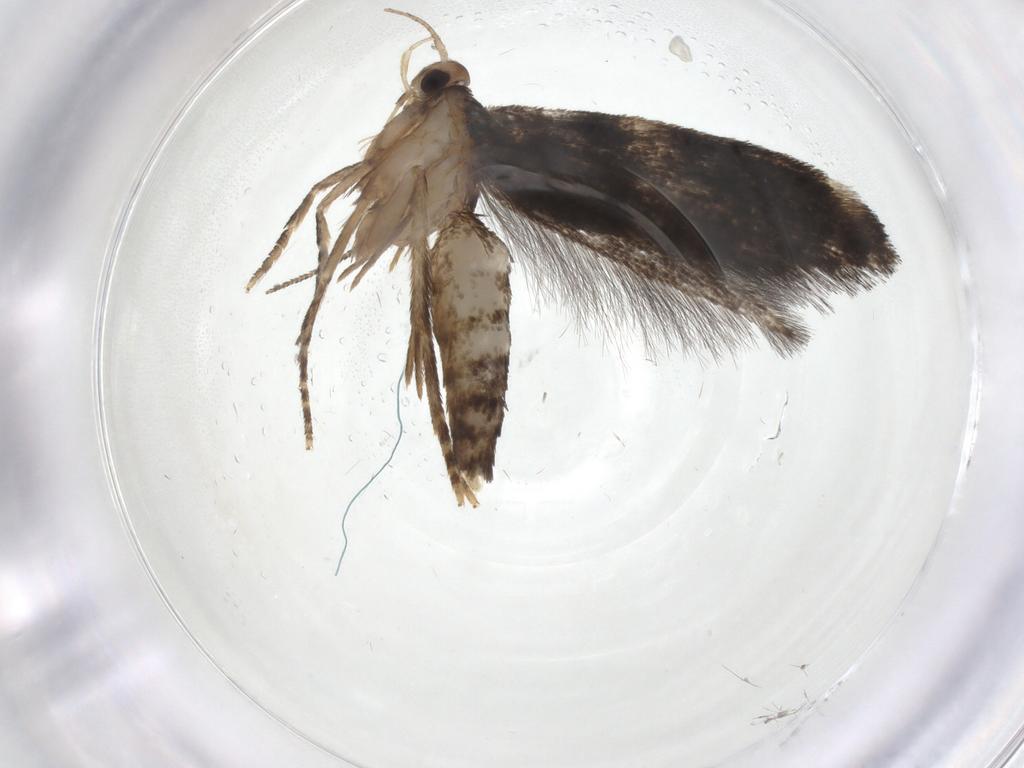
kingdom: Animalia
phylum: Arthropoda
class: Insecta
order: Lepidoptera
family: Gelechiidae
